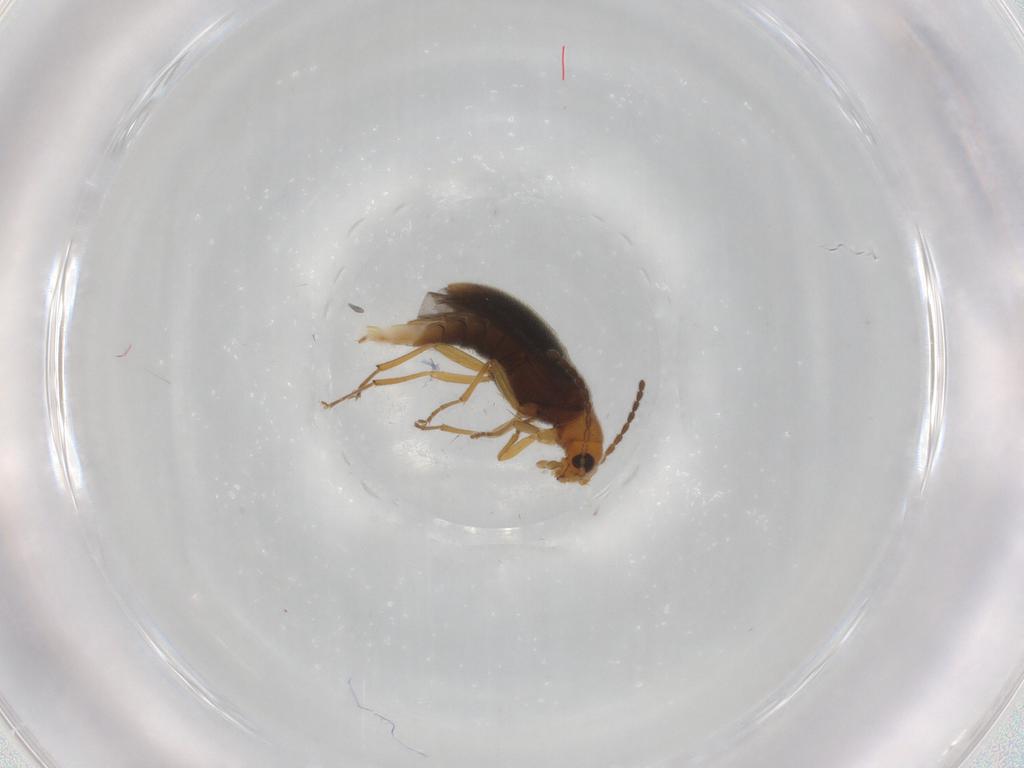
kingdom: Animalia
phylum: Arthropoda
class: Insecta
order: Coleoptera
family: Melandryidae
